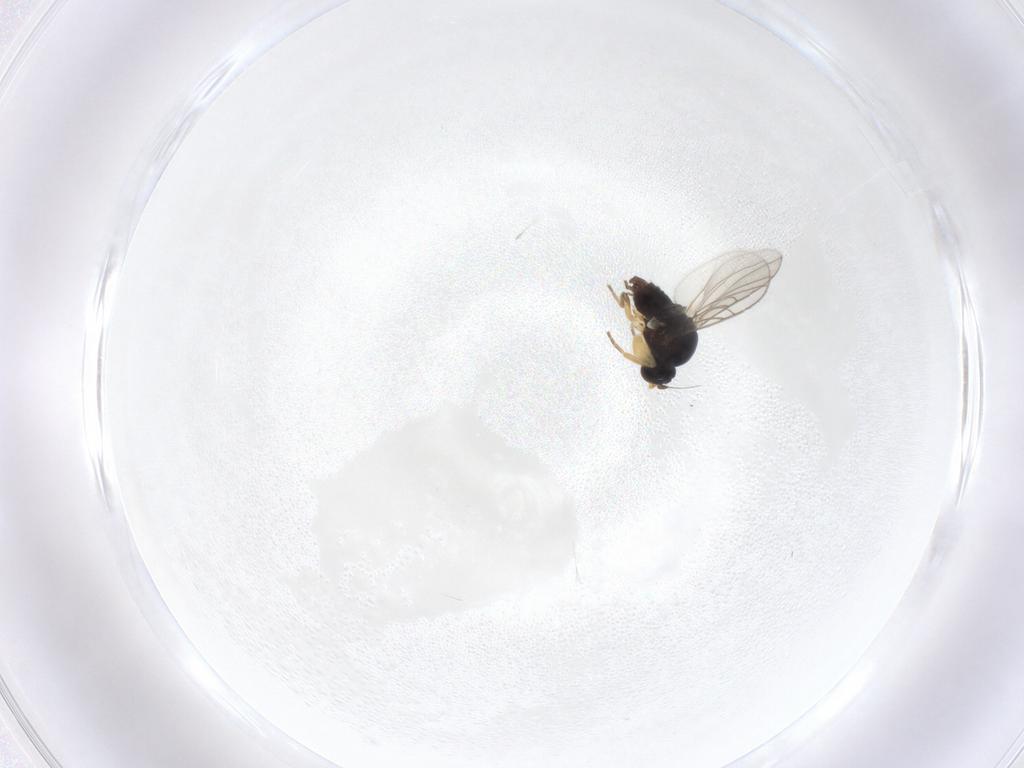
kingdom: Animalia
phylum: Arthropoda
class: Insecta
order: Diptera
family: Hybotidae
